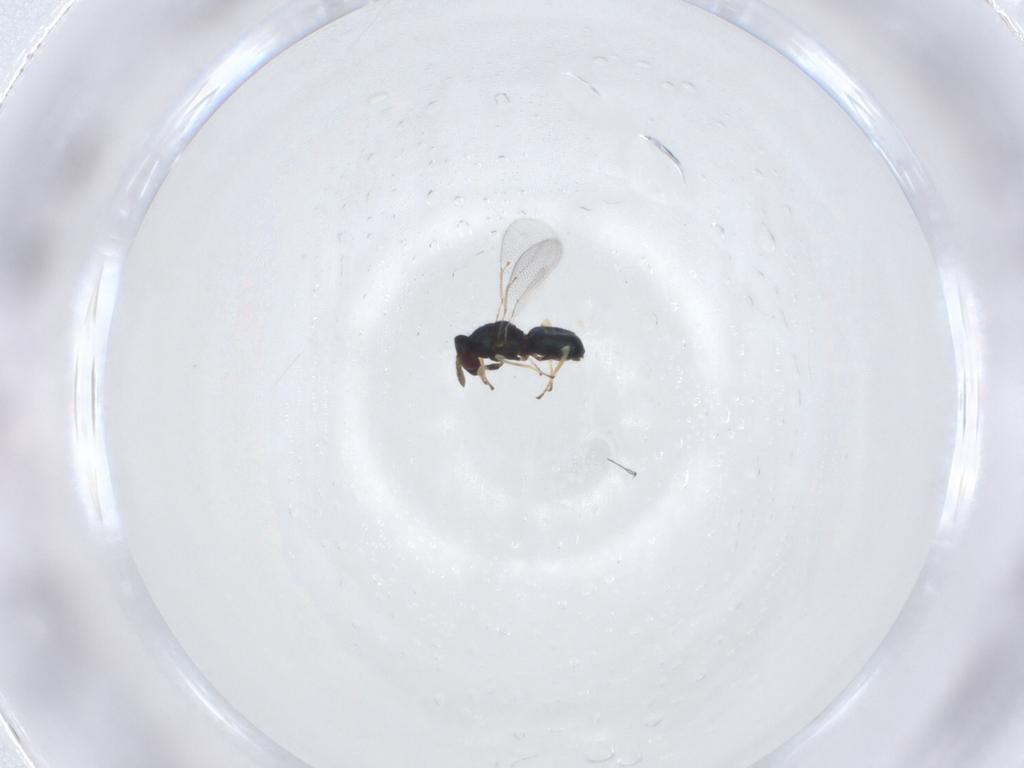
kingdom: Animalia
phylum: Arthropoda
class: Insecta
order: Hymenoptera
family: Eulophidae
